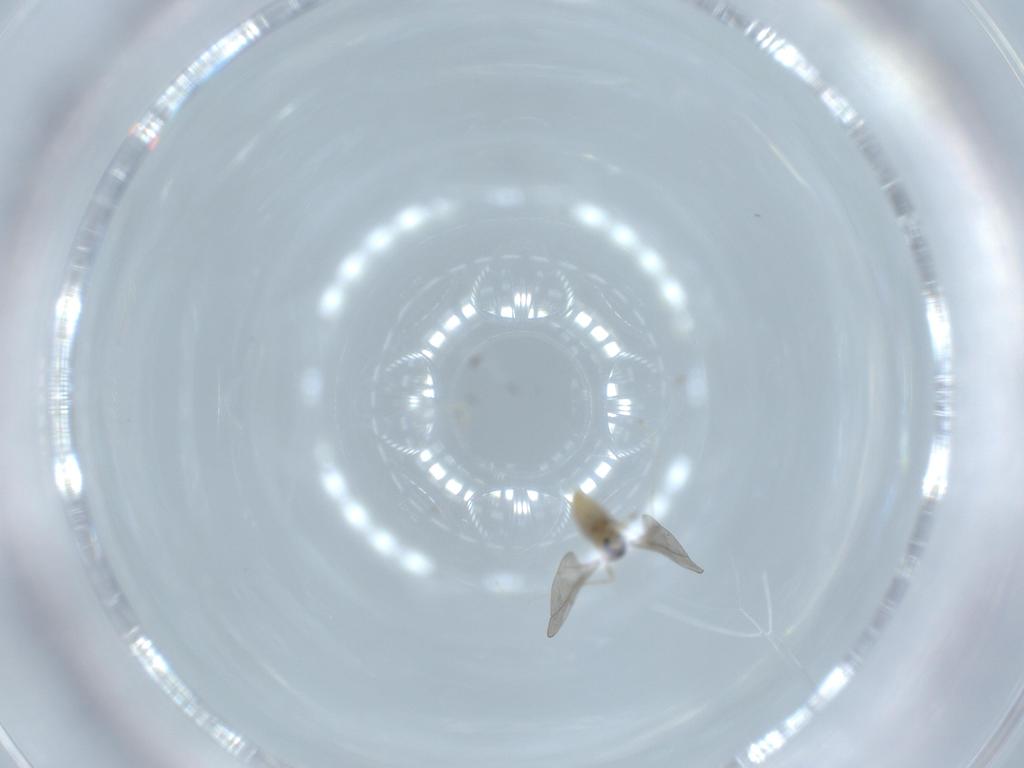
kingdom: Animalia
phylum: Arthropoda
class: Insecta
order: Diptera
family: Cecidomyiidae
